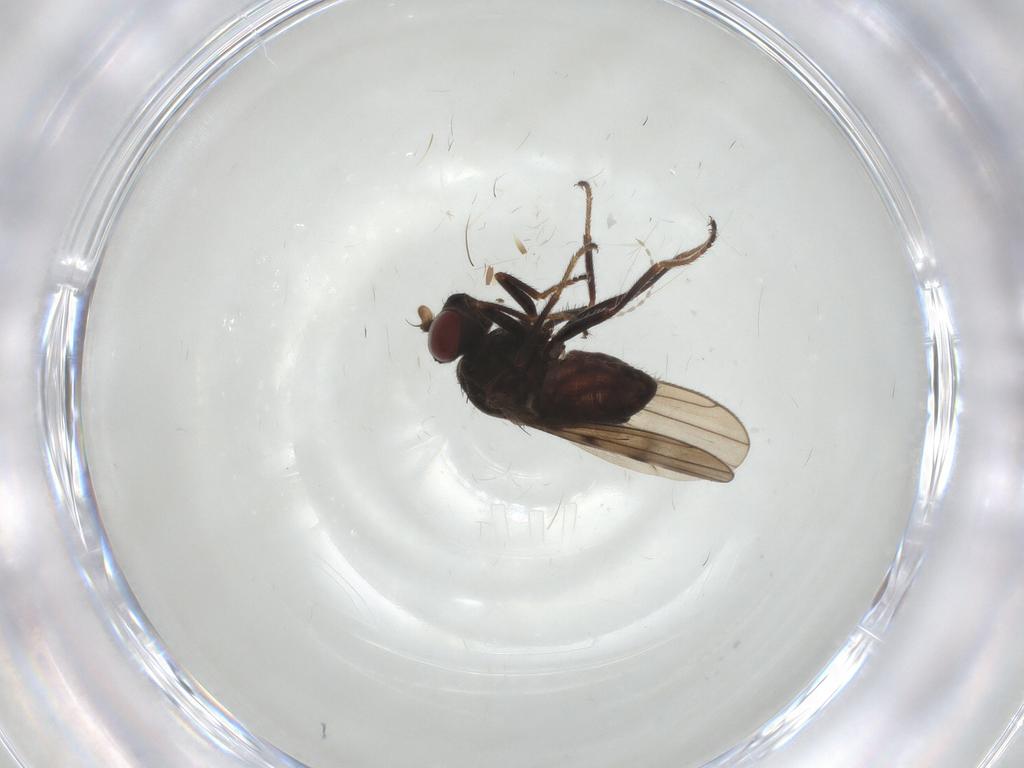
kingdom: Animalia
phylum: Arthropoda
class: Insecta
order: Diptera
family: Ephydridae
